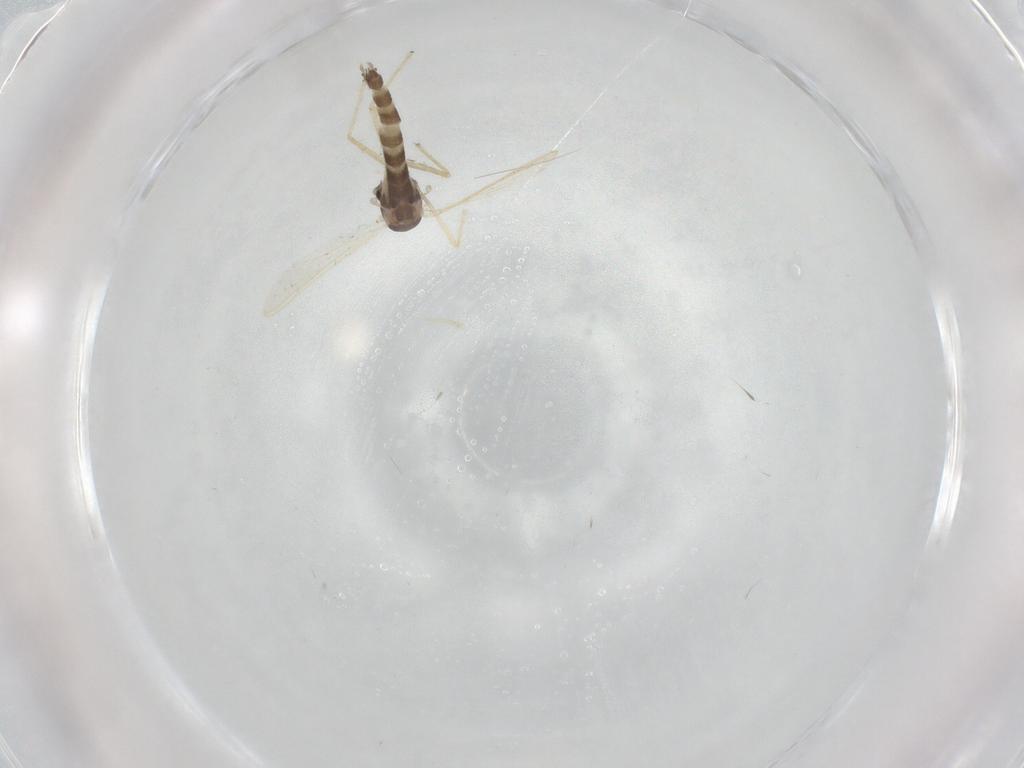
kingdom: Animalia
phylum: Arthropoda
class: Insecta
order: Diptera
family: Sciaridae
